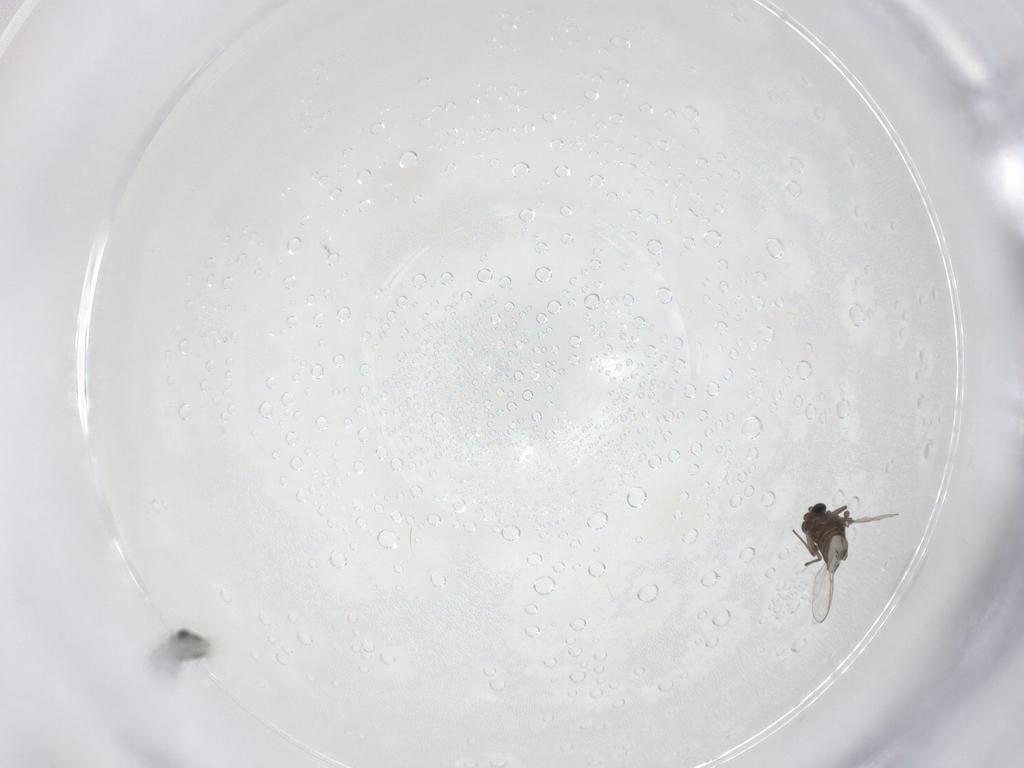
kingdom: Animalia
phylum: Arthropoda
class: Insecta
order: Diptera
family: Chironomidae
